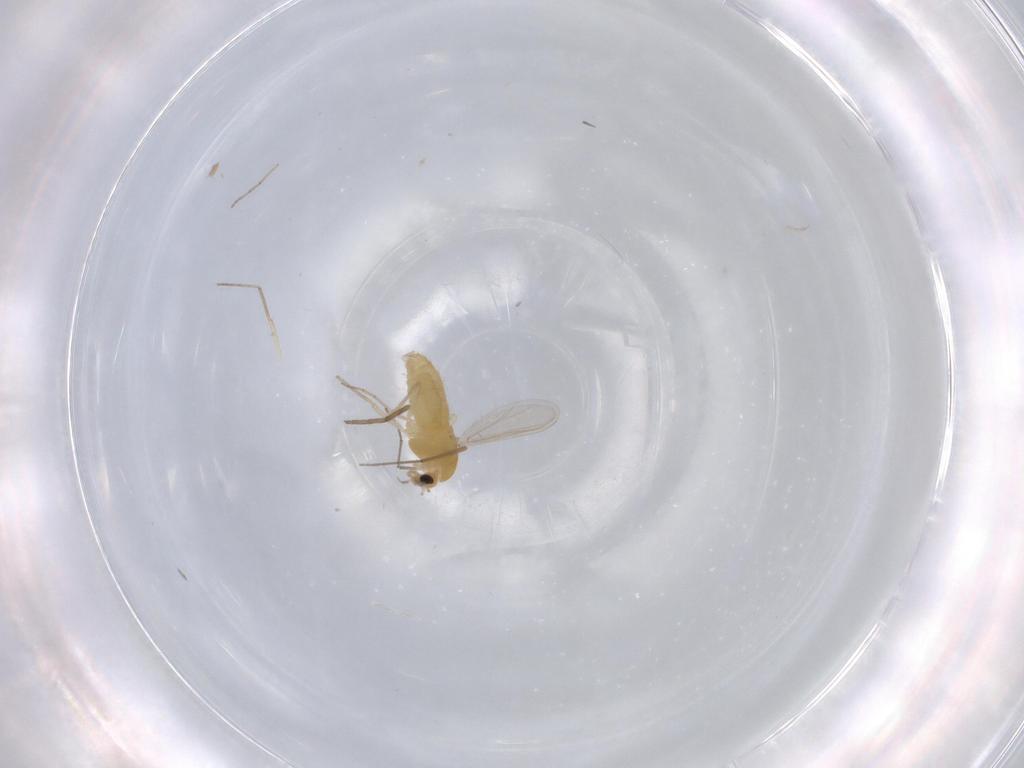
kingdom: Animalia
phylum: Arthropoda
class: Insecta
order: Diptera
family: Chironomidae
